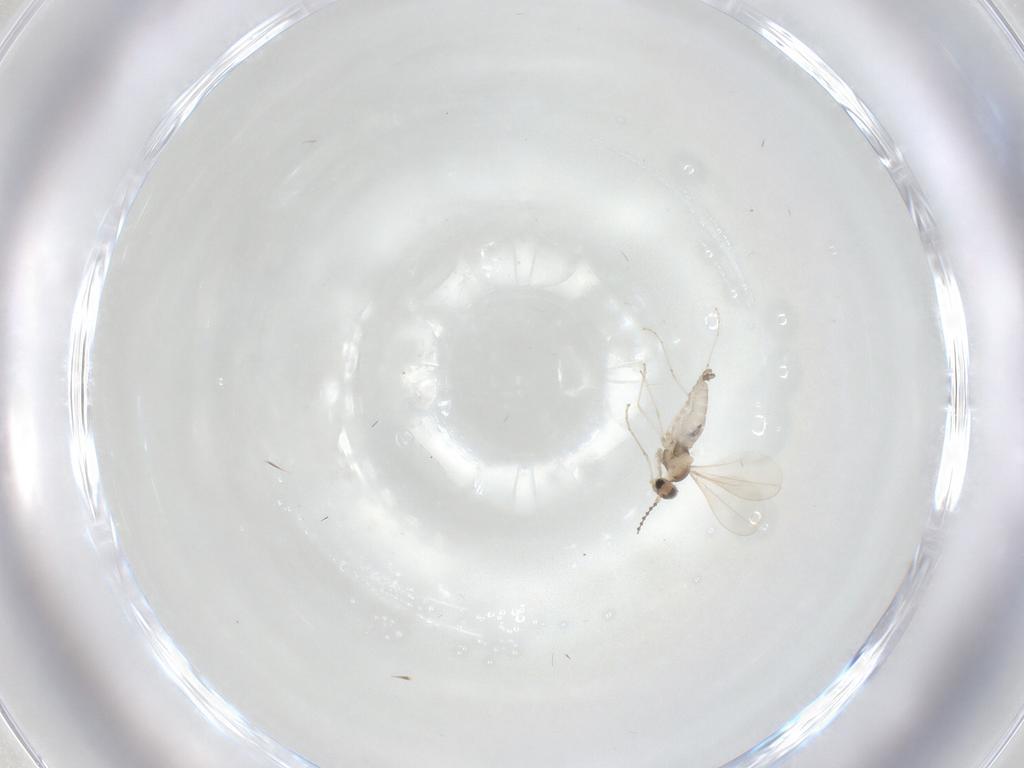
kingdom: Animalia
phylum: Arthropoda
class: Insecta
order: Diptera
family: Cecidomyiidae
